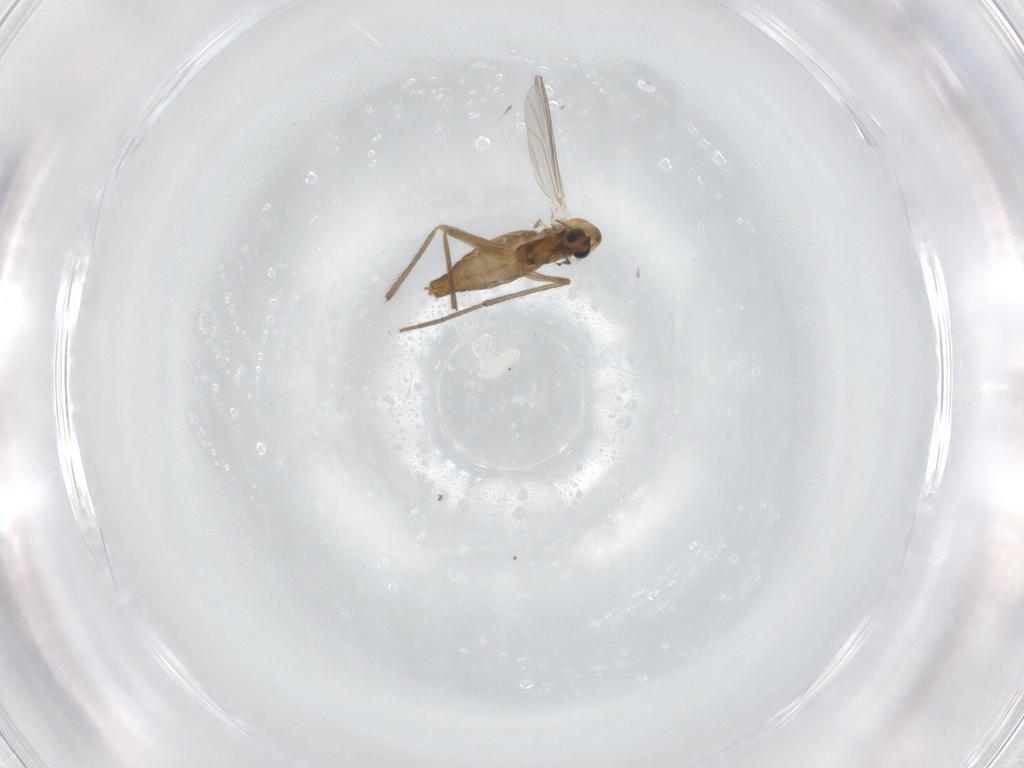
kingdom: Animalia
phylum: Arthropoda
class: Insecta
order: Diptera
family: Chironomidae
